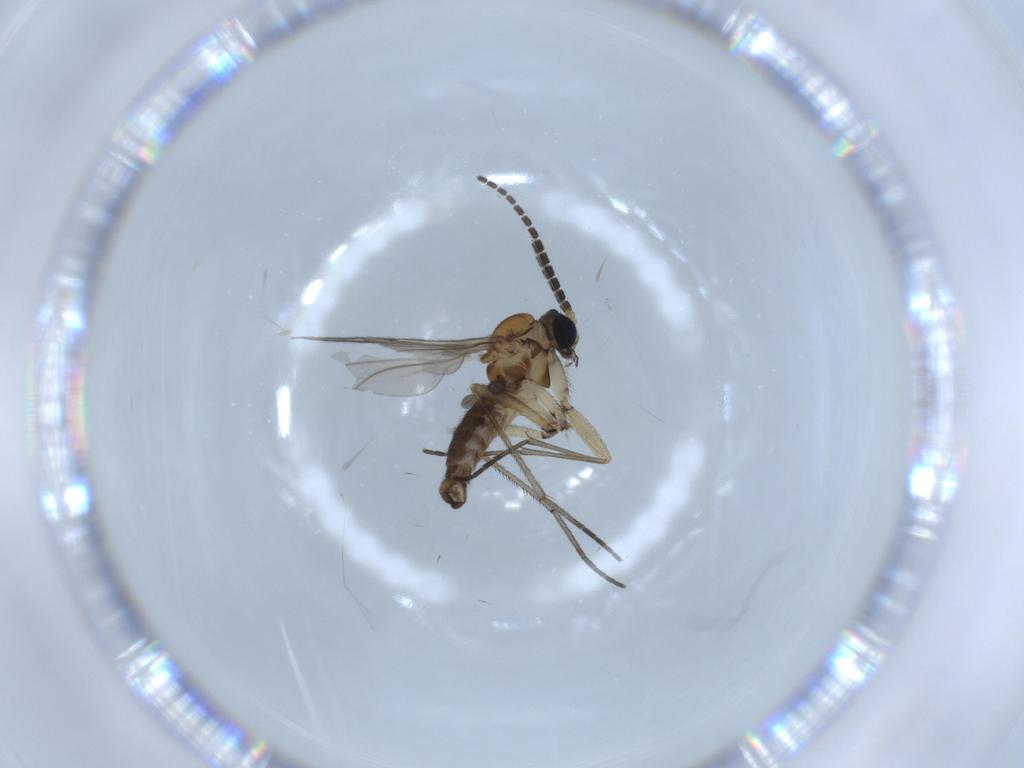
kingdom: Animalia
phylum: Arthropoda
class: Insecta
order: Diptera
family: Sciaridae
